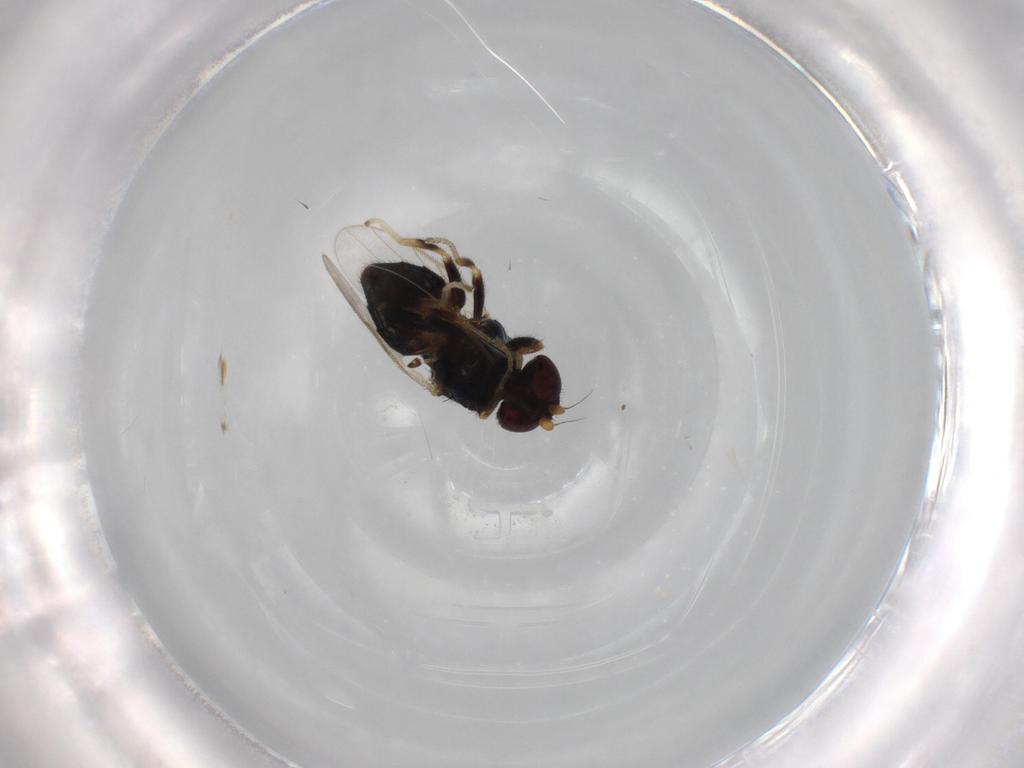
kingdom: Animalia
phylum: Arthropoda
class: Insecta
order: Diptera
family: Chloropidae
